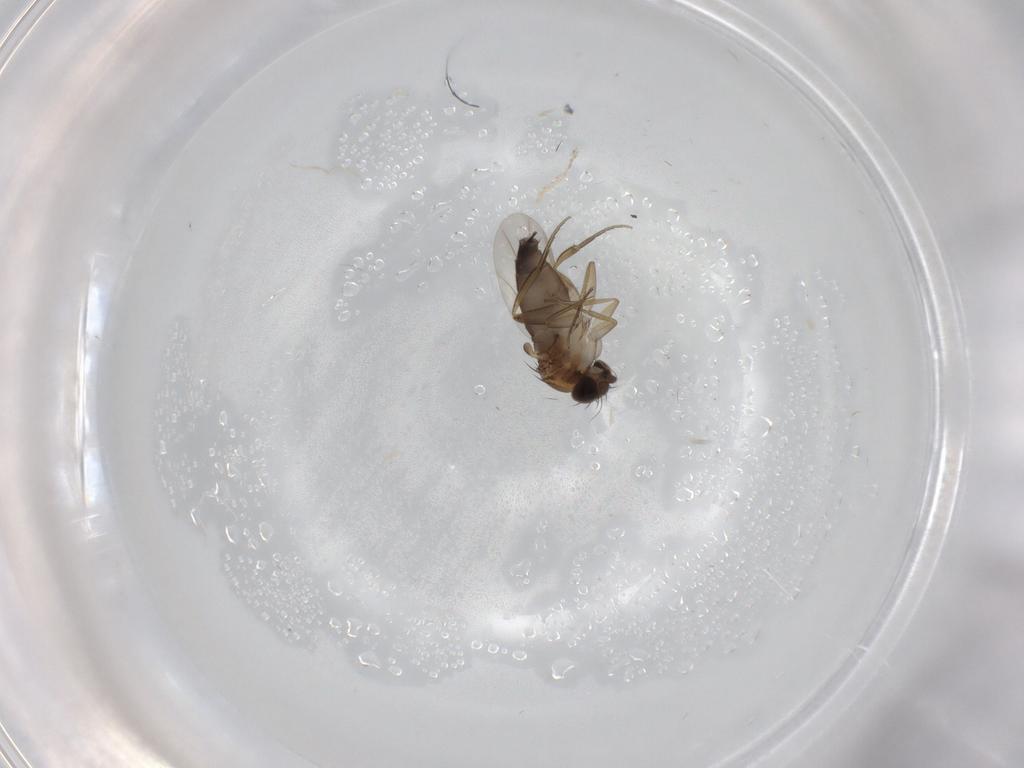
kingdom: Animalia
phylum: Arthropoda
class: Insecta
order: Diptera
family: Phoridae
